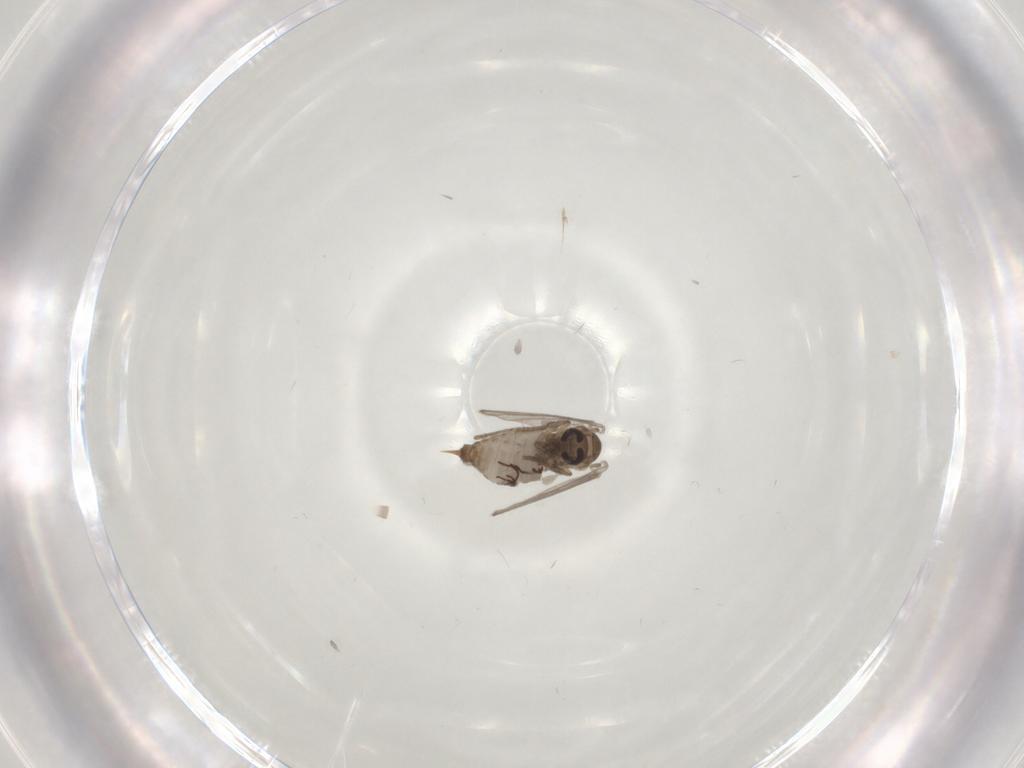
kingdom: Animalia
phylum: Arthropoda
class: Insecta
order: Diptera
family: Psychodidae
